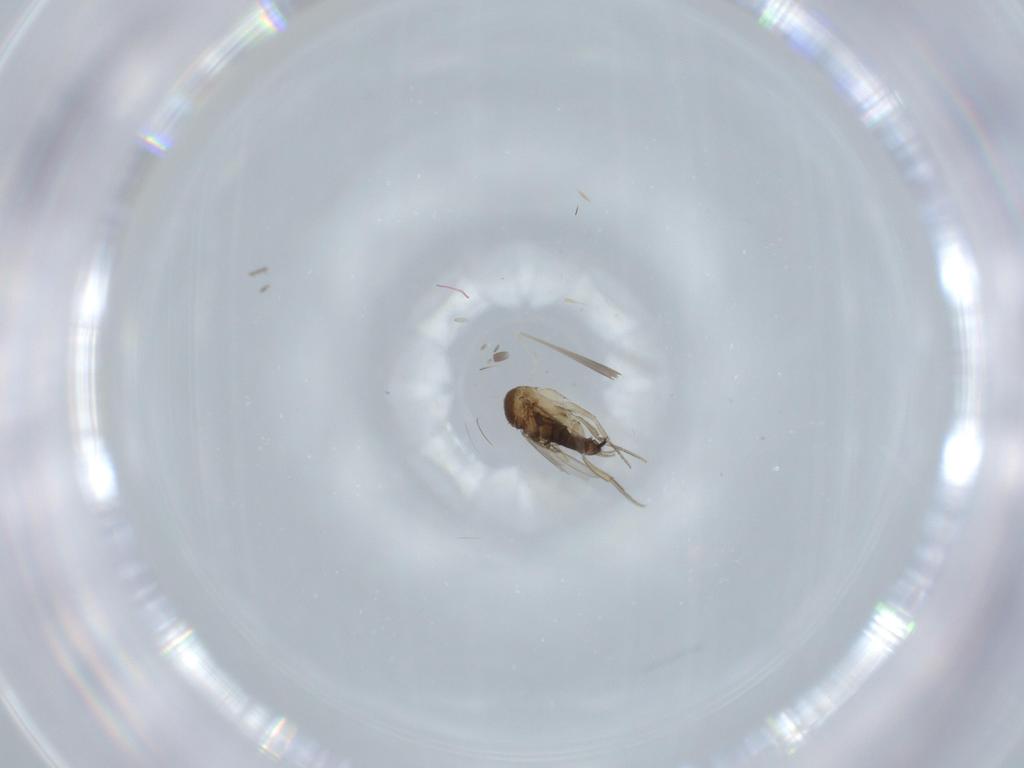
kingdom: Animalia
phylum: Arthropoda
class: Insecta
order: Diptera
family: Phoridae
